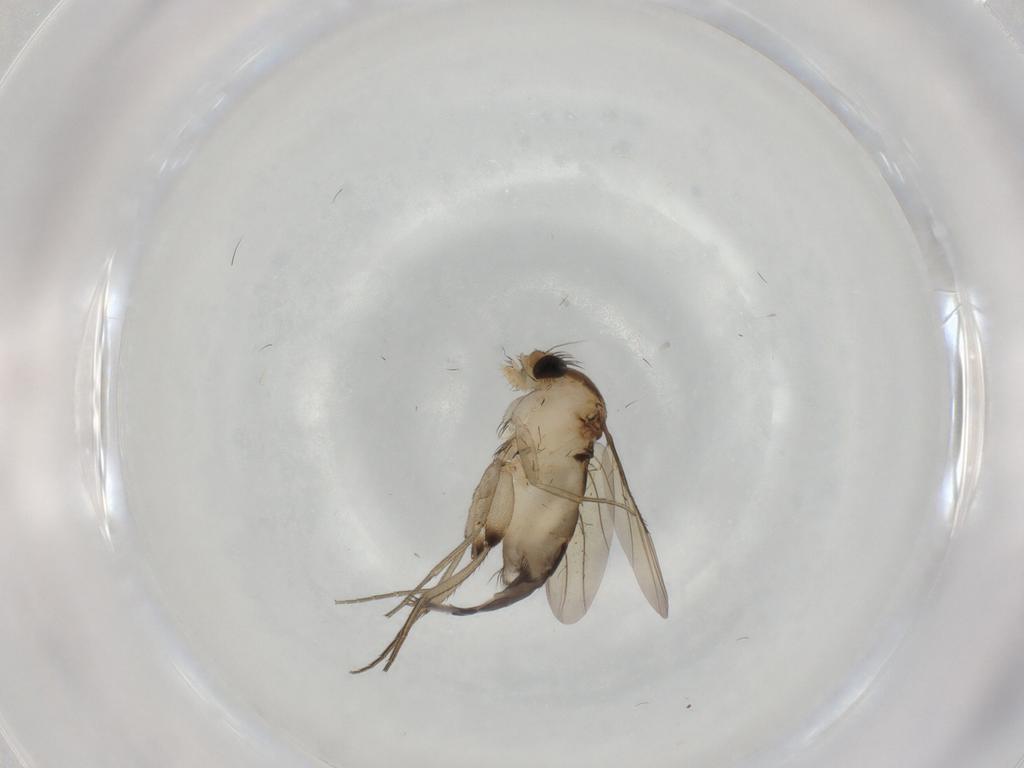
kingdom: Animalia
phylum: Arthropoda
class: Insecta
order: Diptera
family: Phoridae
